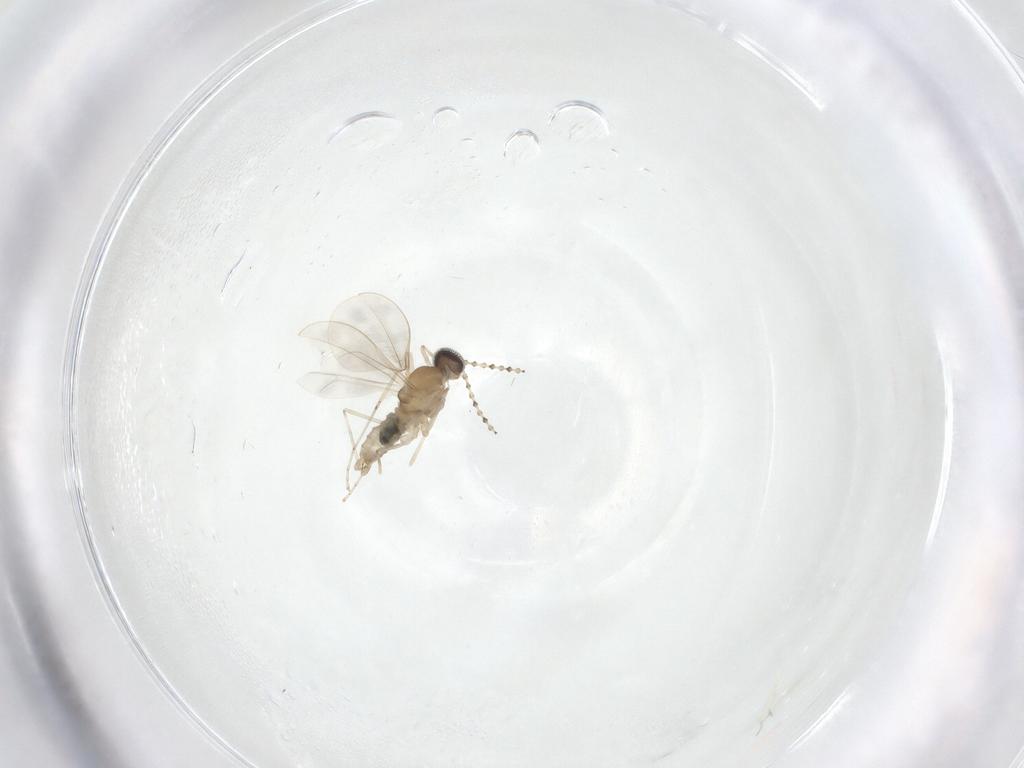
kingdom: Animalia
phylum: Arthropoda
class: Insecta
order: Diptera
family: Cecidomyiidae
